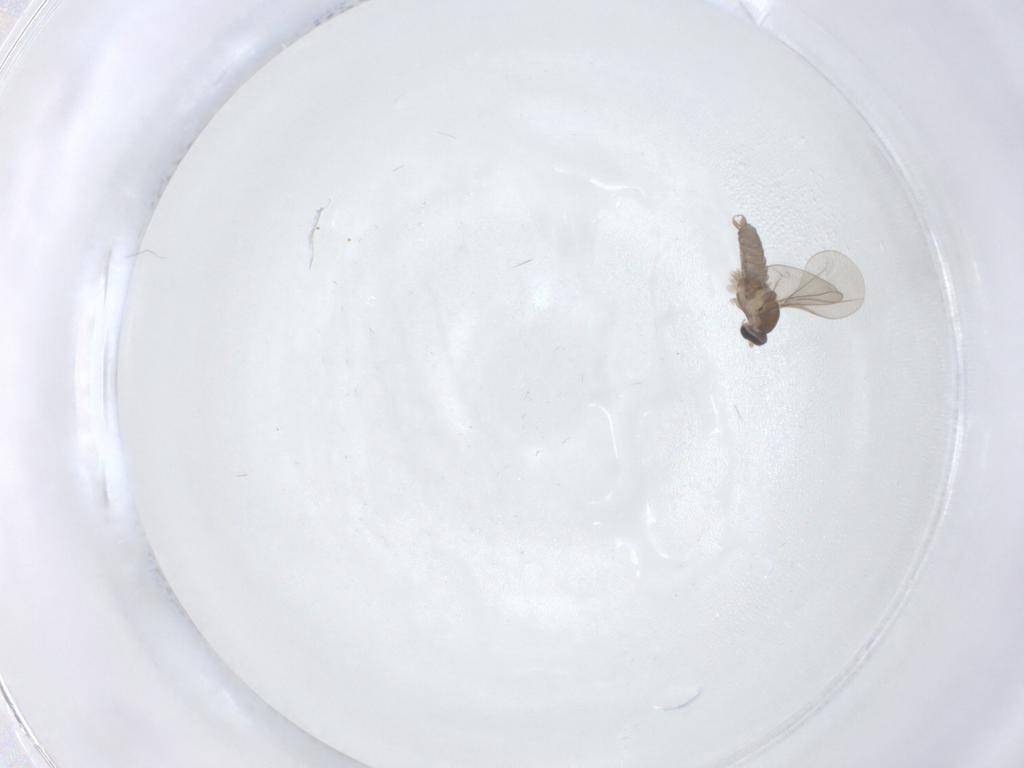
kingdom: Animalia
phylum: Arthropoda
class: Insecta
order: Diptera
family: Cecidomyiidae
